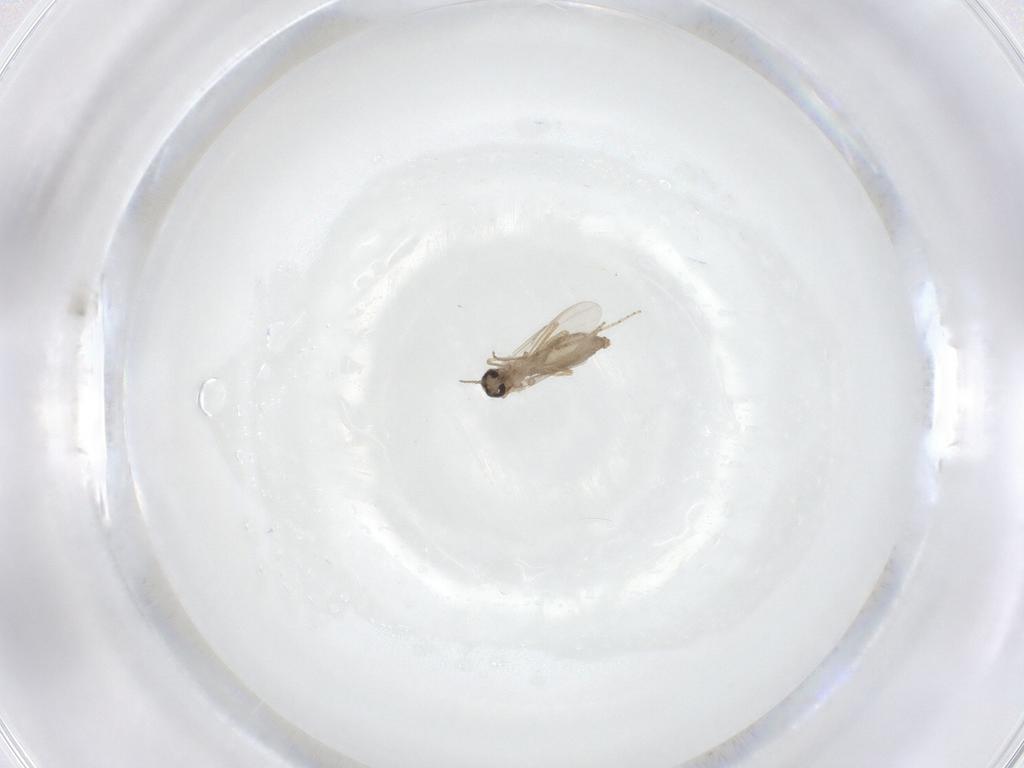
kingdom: Animalia
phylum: Arthropoda
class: Insecta
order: Diptera
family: Ceratopogonidae
